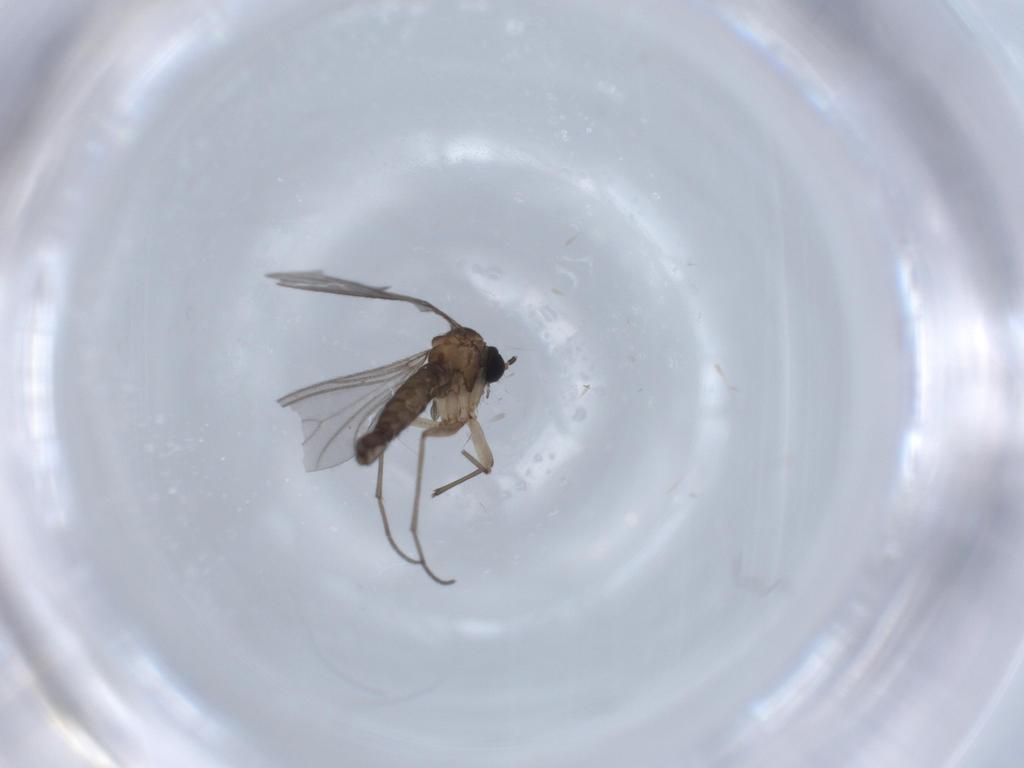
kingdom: Animalia
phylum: Arthropoda
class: Insecta
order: Diptera
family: Sciaridae
